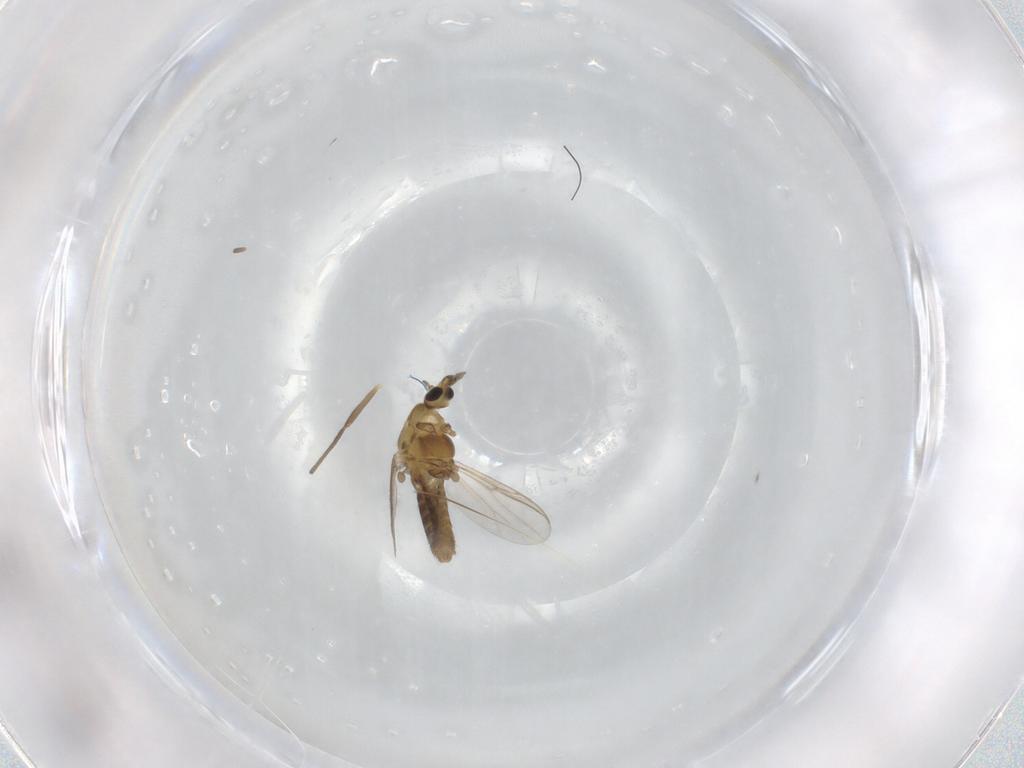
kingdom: Animalia
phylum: Arthropoda
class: Insecta
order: Diptera
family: Chironomidae
